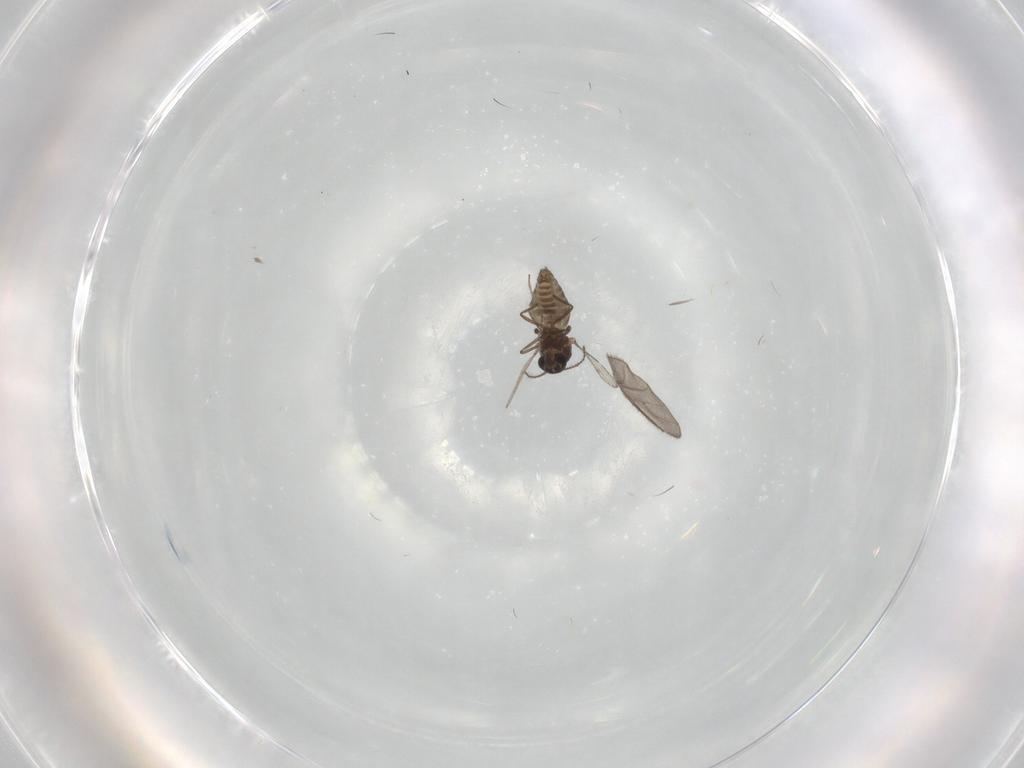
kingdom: Animalia
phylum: Arthropoda
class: Insecta
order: Diptera
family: Ceratopogonidae
